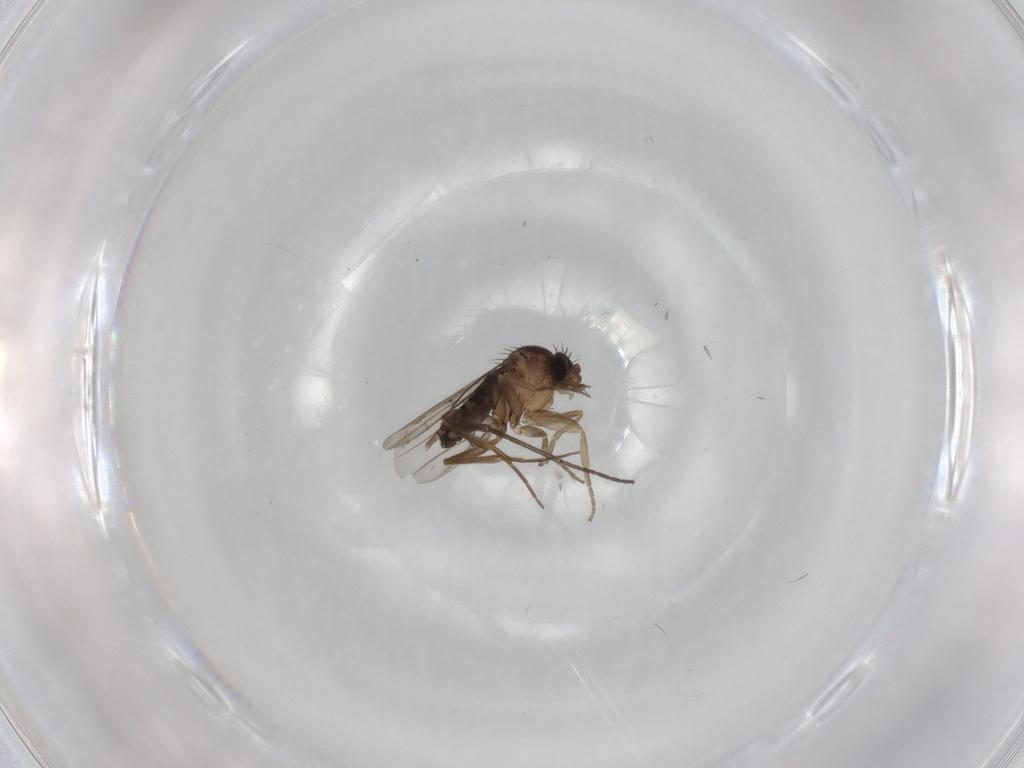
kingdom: Animalia
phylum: Arthropoda
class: Insecta
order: Diptera
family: Phoridae
